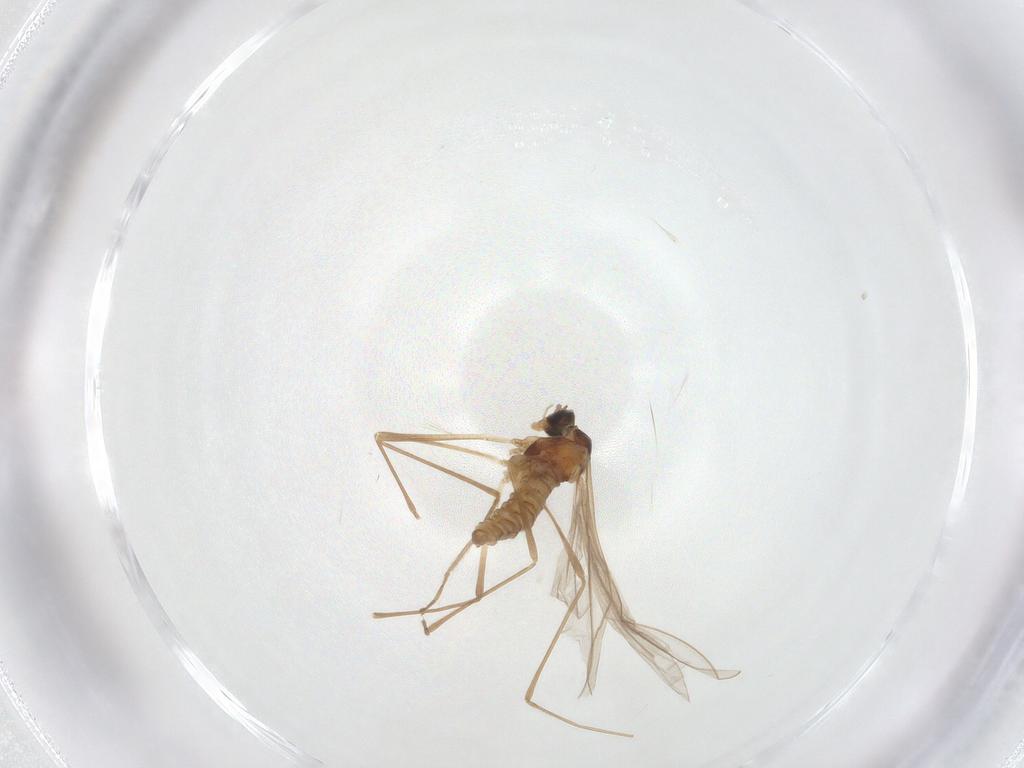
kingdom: Animalia
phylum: Arthropoda
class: Insecta
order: Diptera
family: Cecidomyiidae
